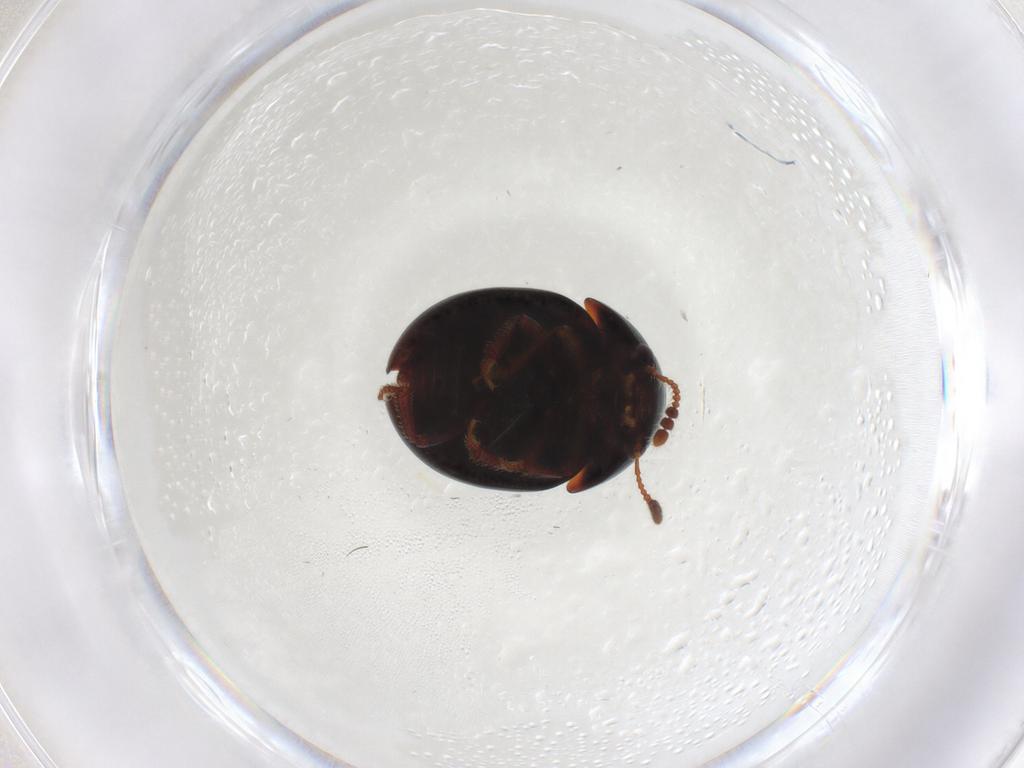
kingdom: Animalia
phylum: Arthropoda
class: Insecta
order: Coleoptera
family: Leiodidae
